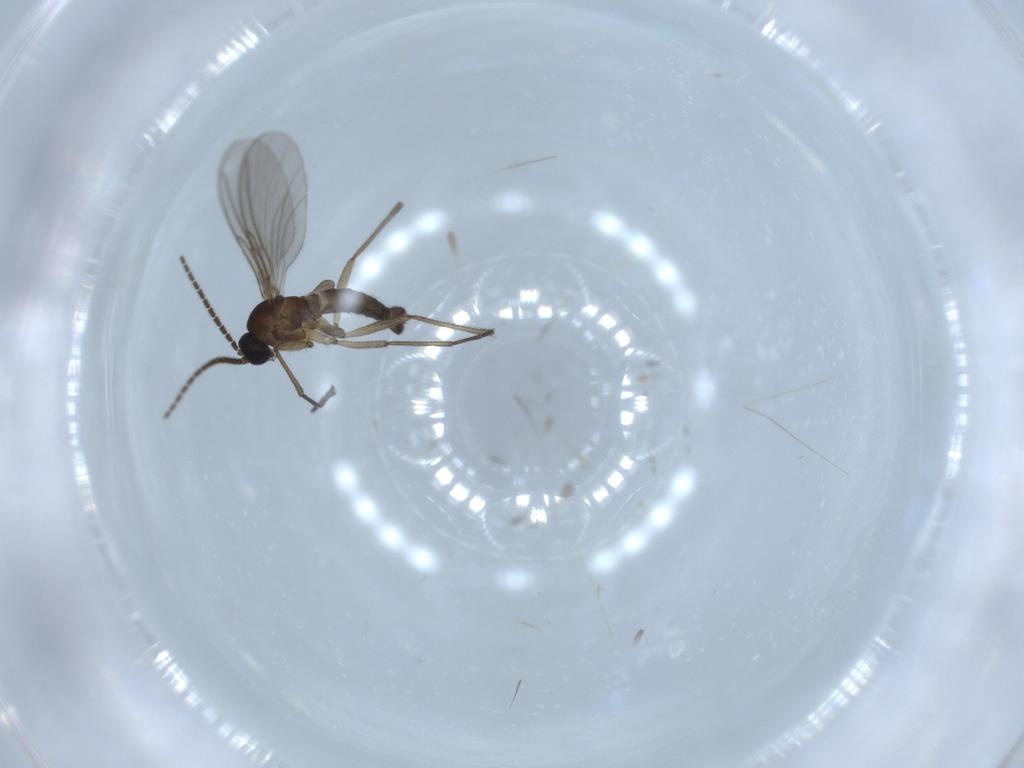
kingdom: Animalia
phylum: Arthropoda
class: Insecta
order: Diptera
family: Sciaridae
